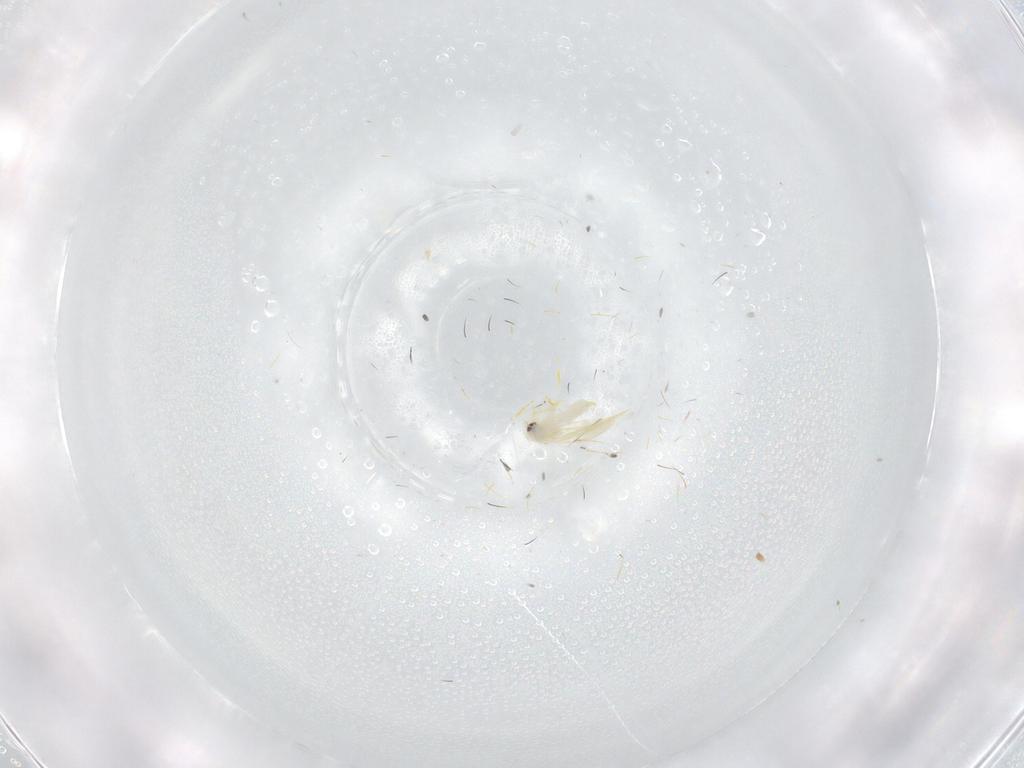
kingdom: Animalia
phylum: Arthropoda
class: Insecta
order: Hemiptera
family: Aleyrodidae
